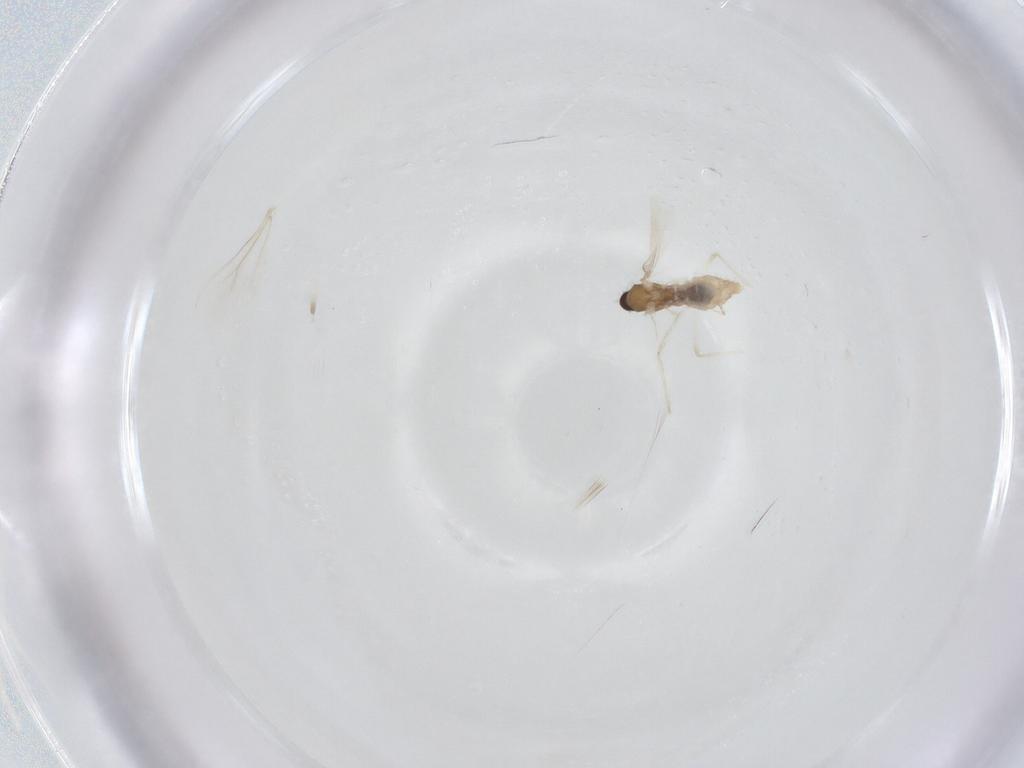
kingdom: Animalia
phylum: Arthropoda
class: Insecta
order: Diptera
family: Cecidomyiidae
